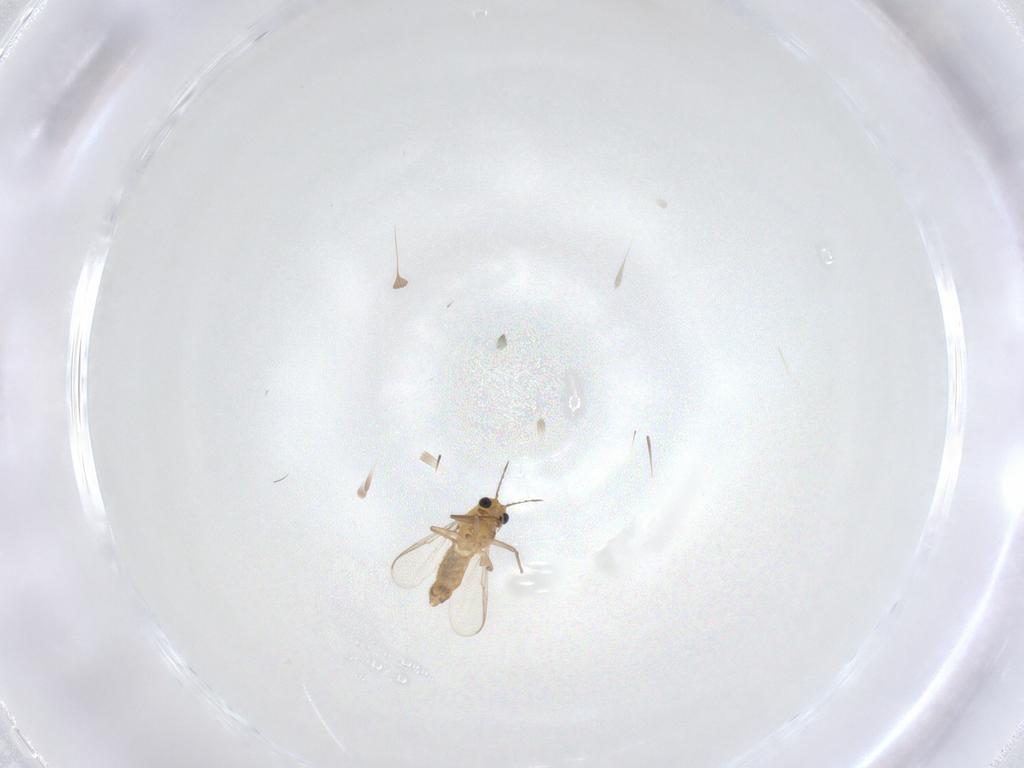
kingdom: Animalia
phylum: Arthropoda
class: Insecta
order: Diptera
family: Chironomidae
